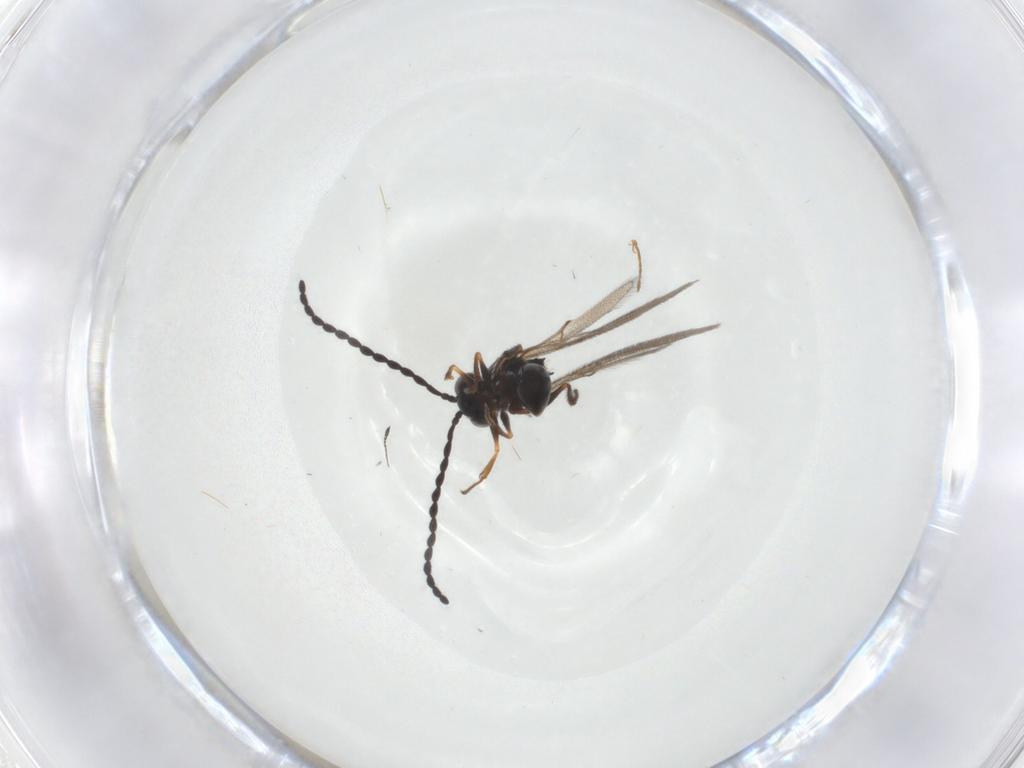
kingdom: Animalia
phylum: Arthropoda
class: Insecta
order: Hymenoptera
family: Figitidae
